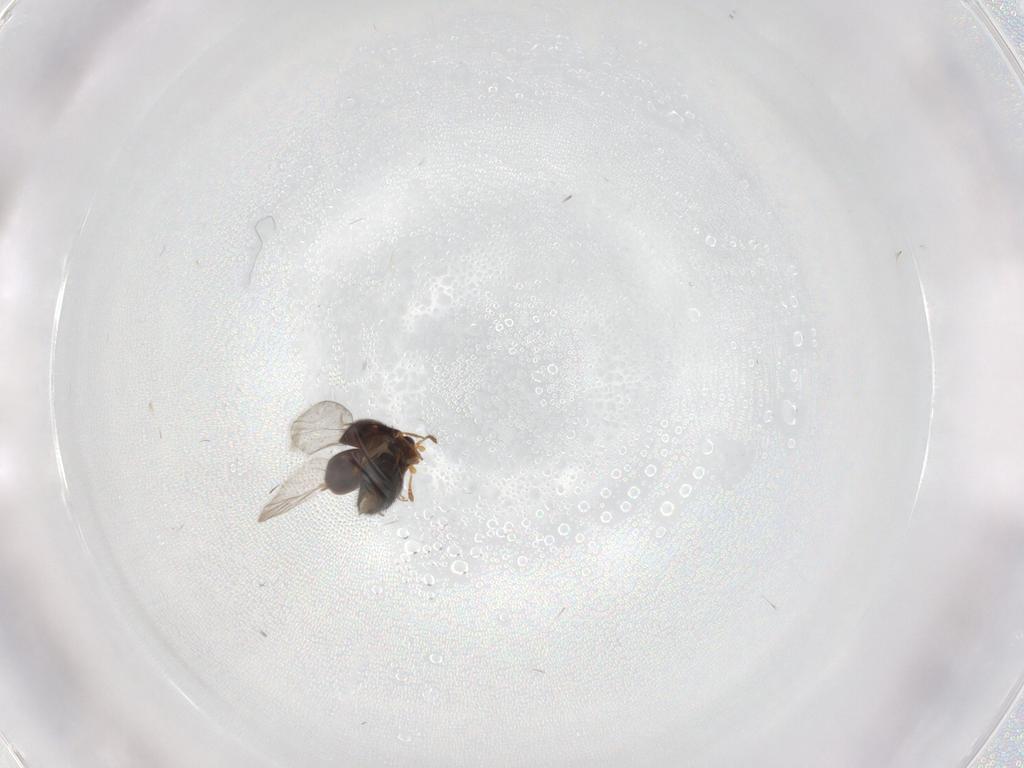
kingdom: Animalia
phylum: Arthropoda
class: Insecta
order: Coleoptera
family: Staphylinidae
